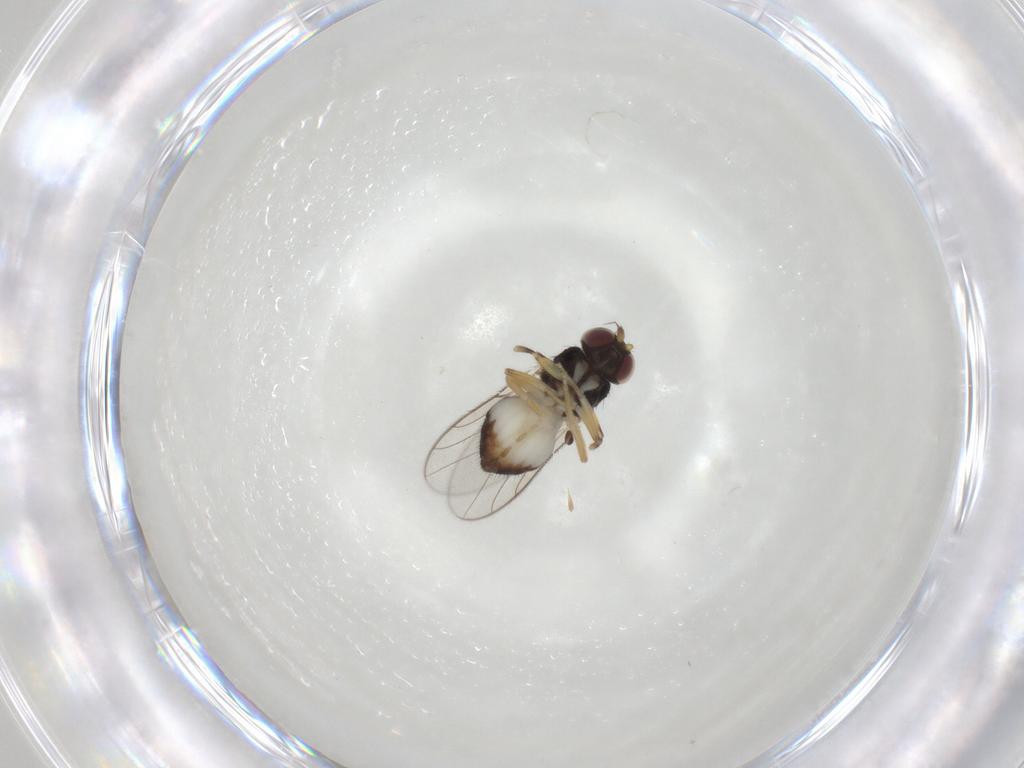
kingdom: Animalia
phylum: Arthropoda
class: Insecta
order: Diptera
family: Chloropidae
